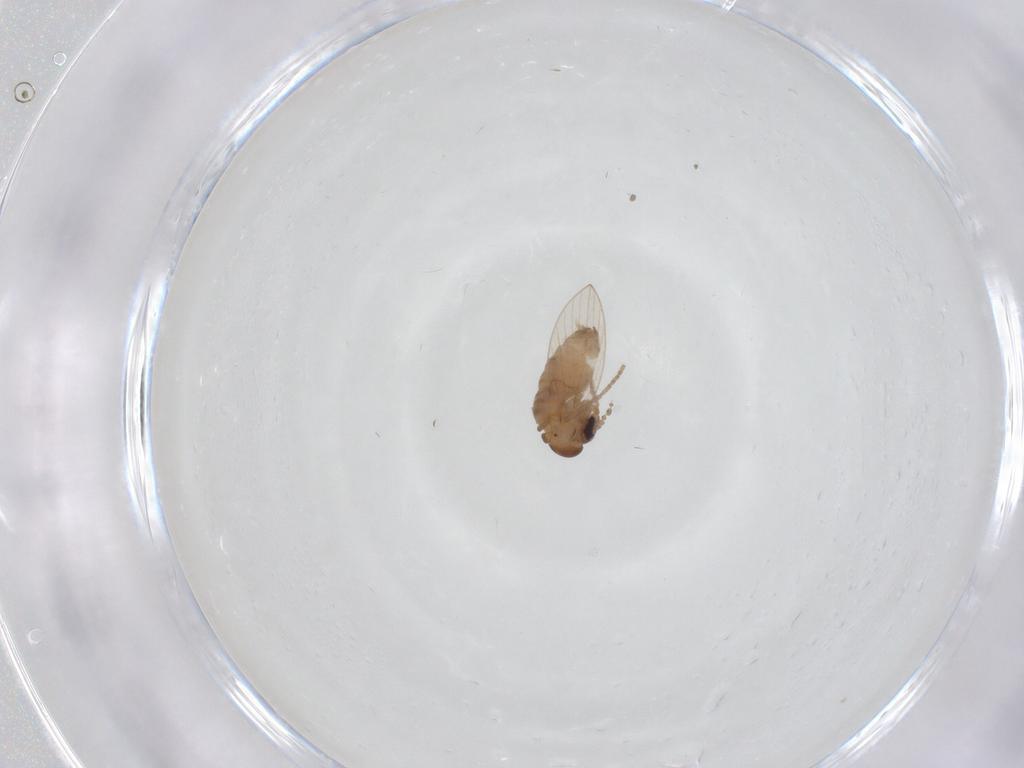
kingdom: Animalia
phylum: Arthropoda
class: Insecta
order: Diptera
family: Psychodidae
